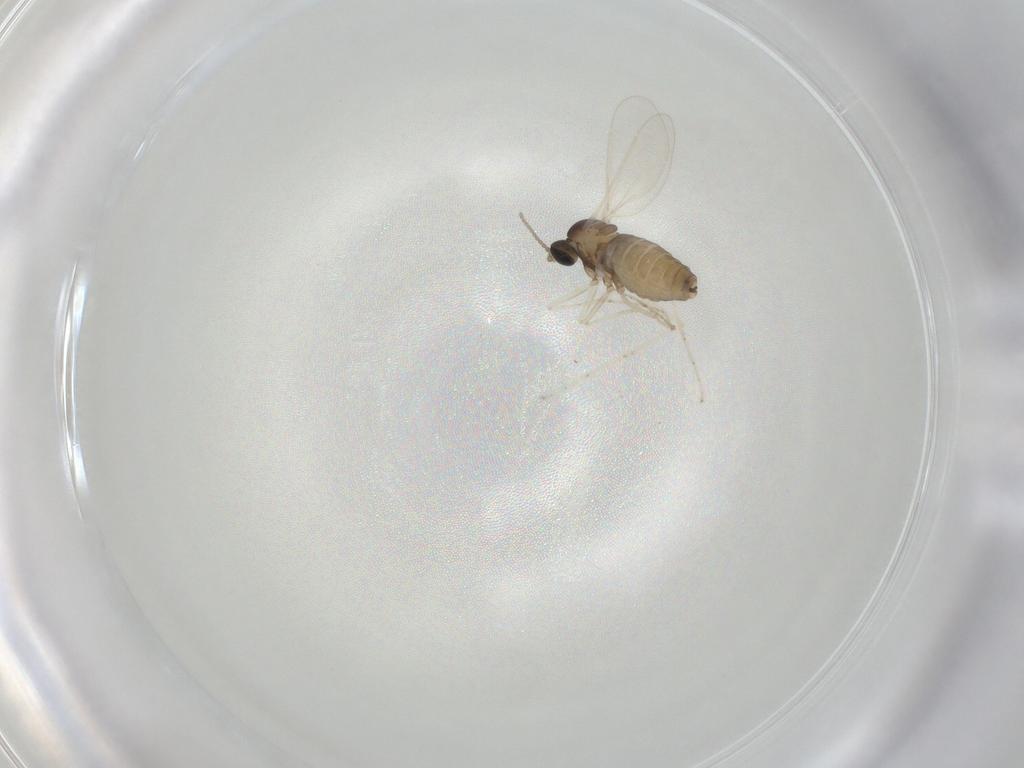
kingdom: Animalia
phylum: Arthropoda
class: Insecta
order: Diptera
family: Cecidomyiidae
